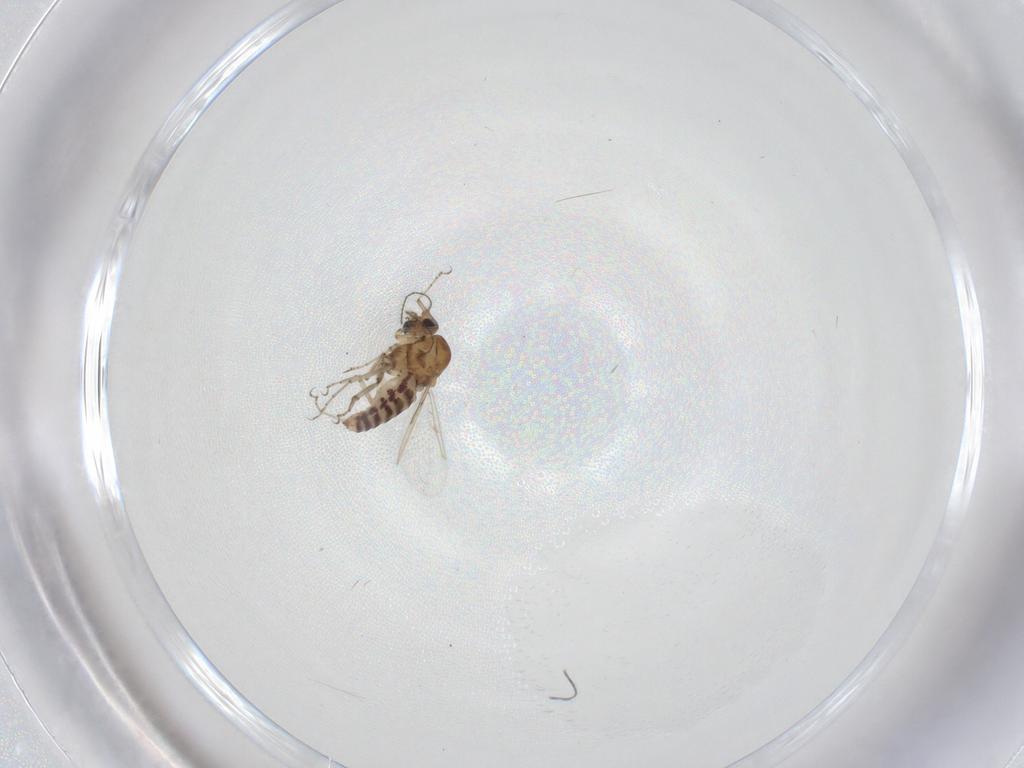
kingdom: Animalia
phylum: Arthropoda
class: Insecta
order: Diptera
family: Ceratopogonidae
